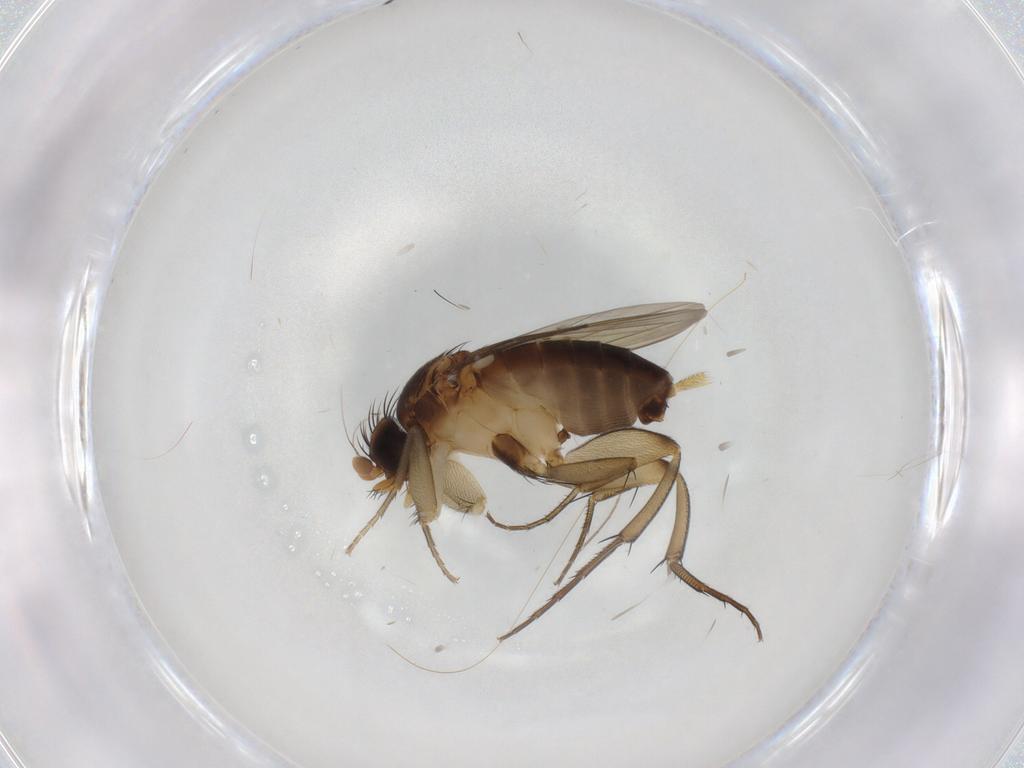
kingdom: Animalia
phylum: Arthropoda
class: Insecta
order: Diptera
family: Phoridae
